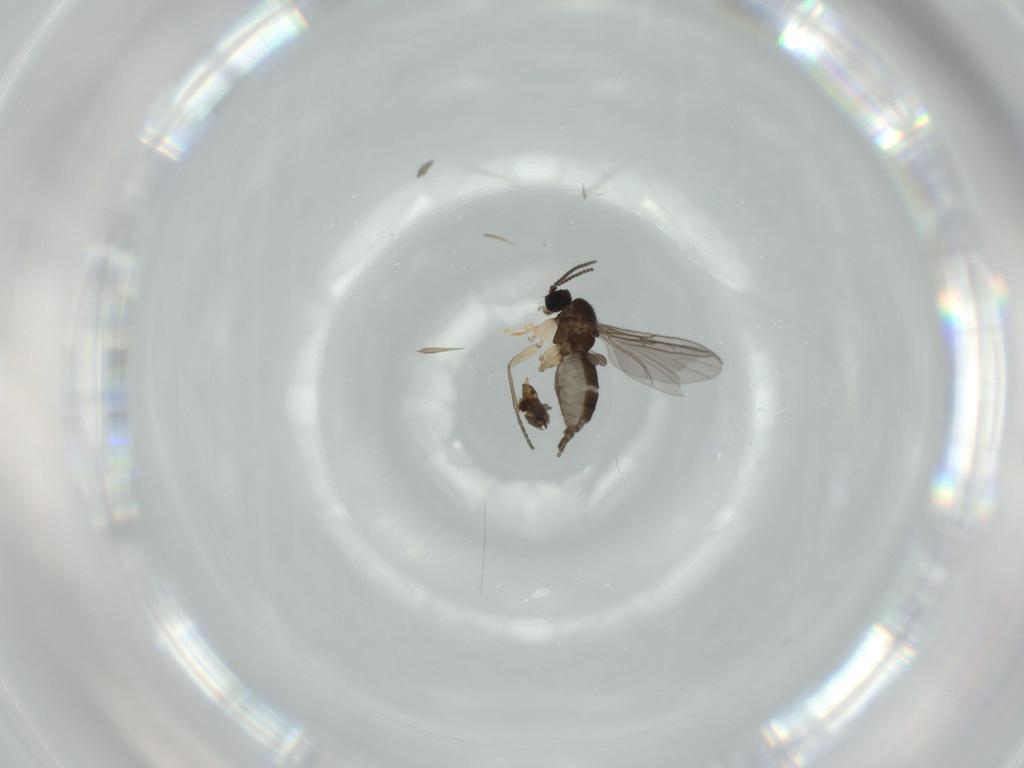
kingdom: Animalia
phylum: Arthropoda
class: Insecta
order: Diptera
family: Sciaridae
